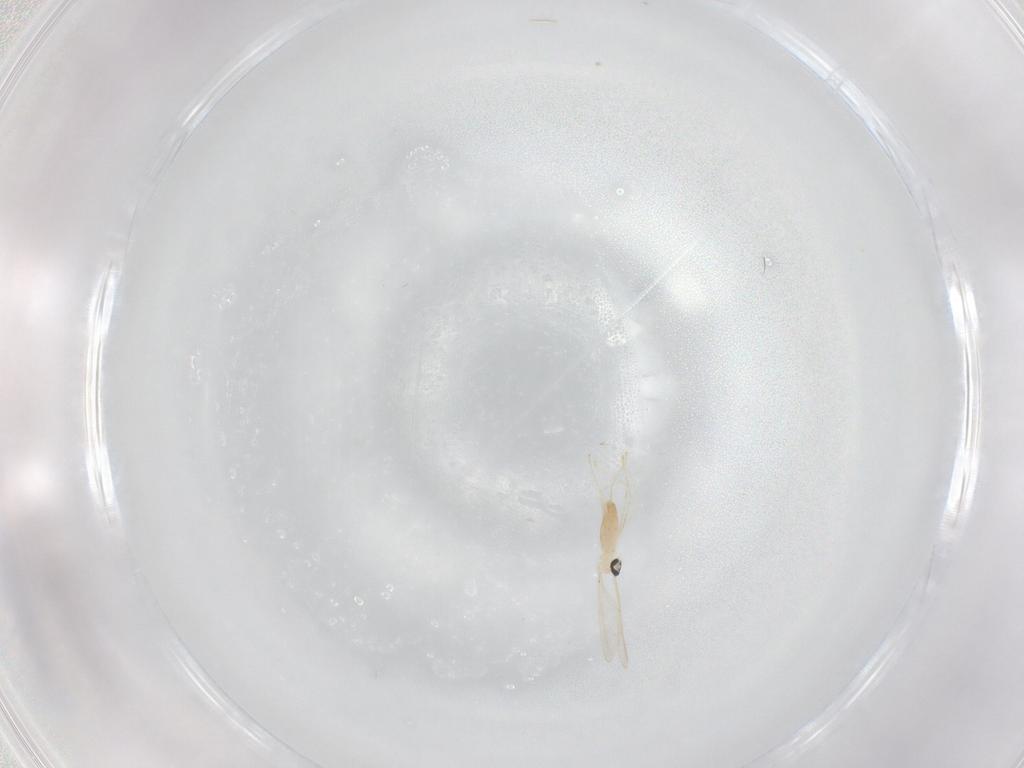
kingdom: Animalia
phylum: Arthropoda
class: Insecta
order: Diptera
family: Cecidomyiidae
